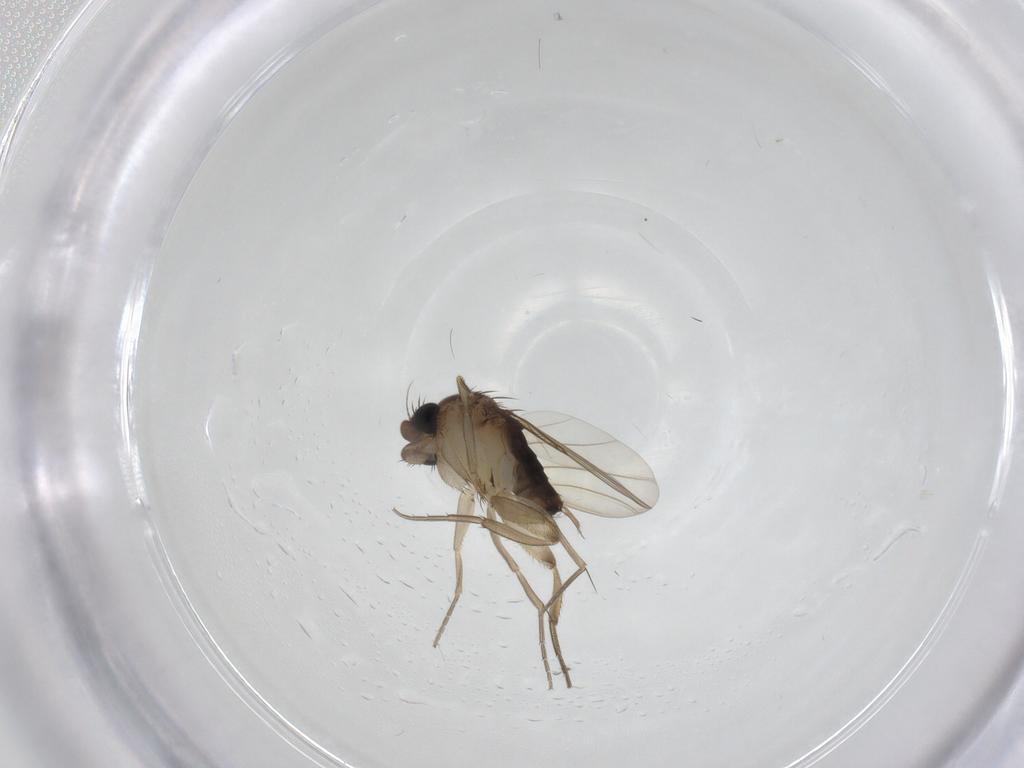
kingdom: Animalia
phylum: Arthropoda
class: Insecta
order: Diptera
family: Phoridae
